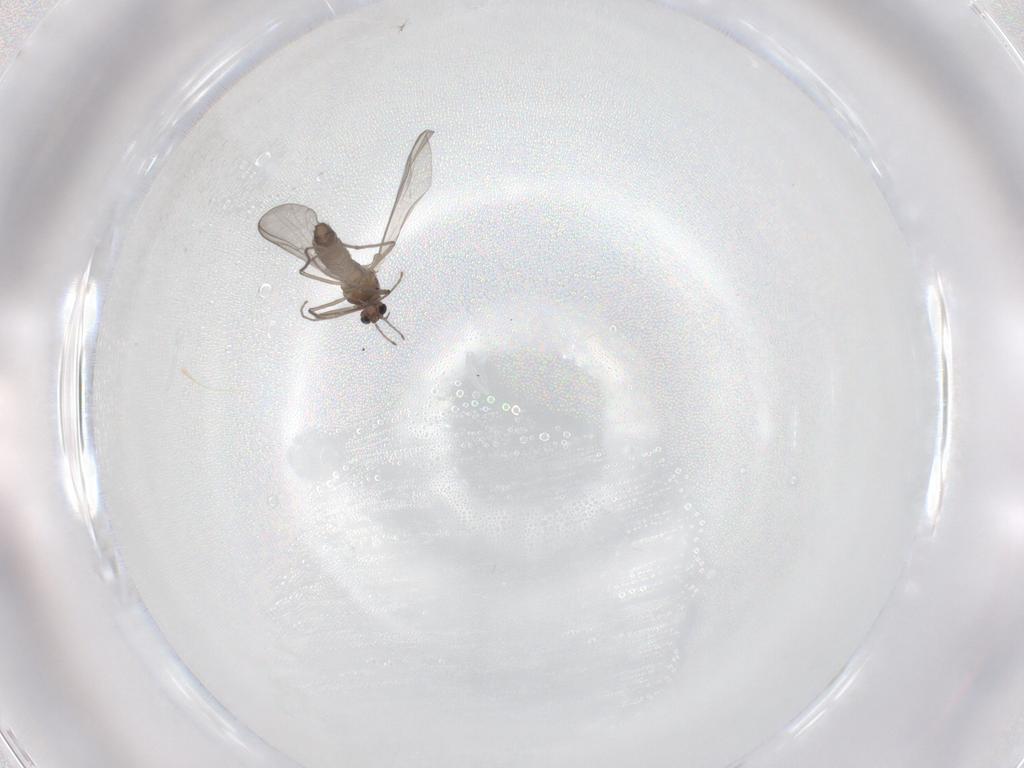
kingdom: Animalia
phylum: Arthropoda
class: Insecta
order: Diptera
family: Chironomidae
